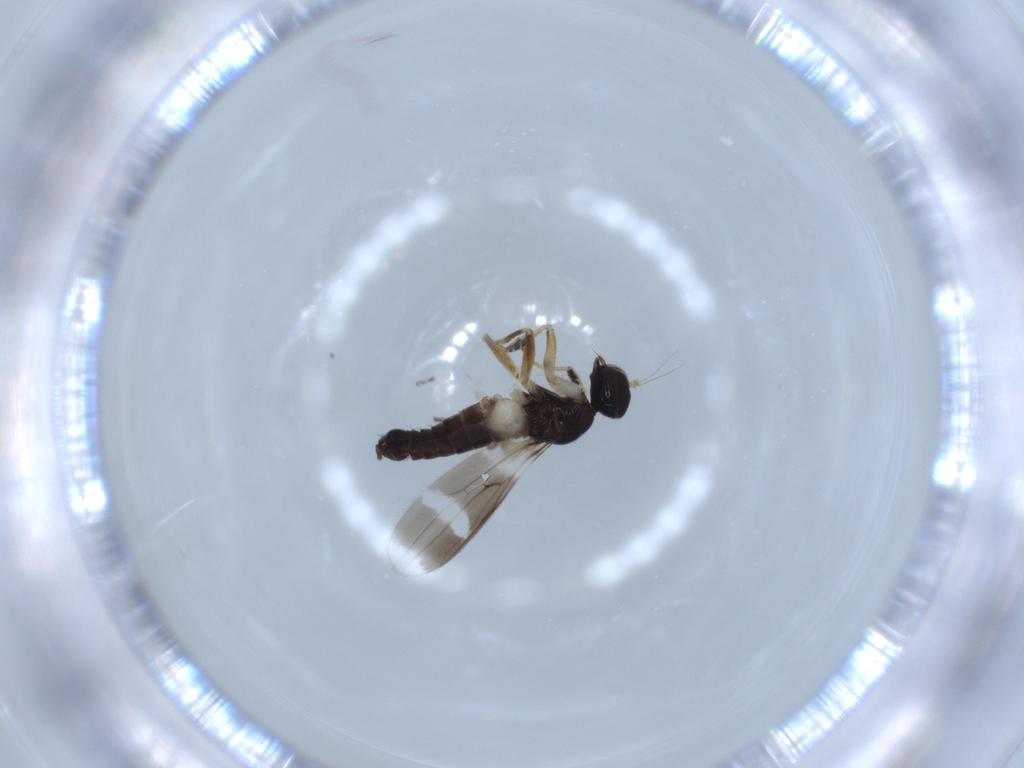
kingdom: Animalia
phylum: Arthropoda
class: Insecta
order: Diptera
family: Hybotidae
